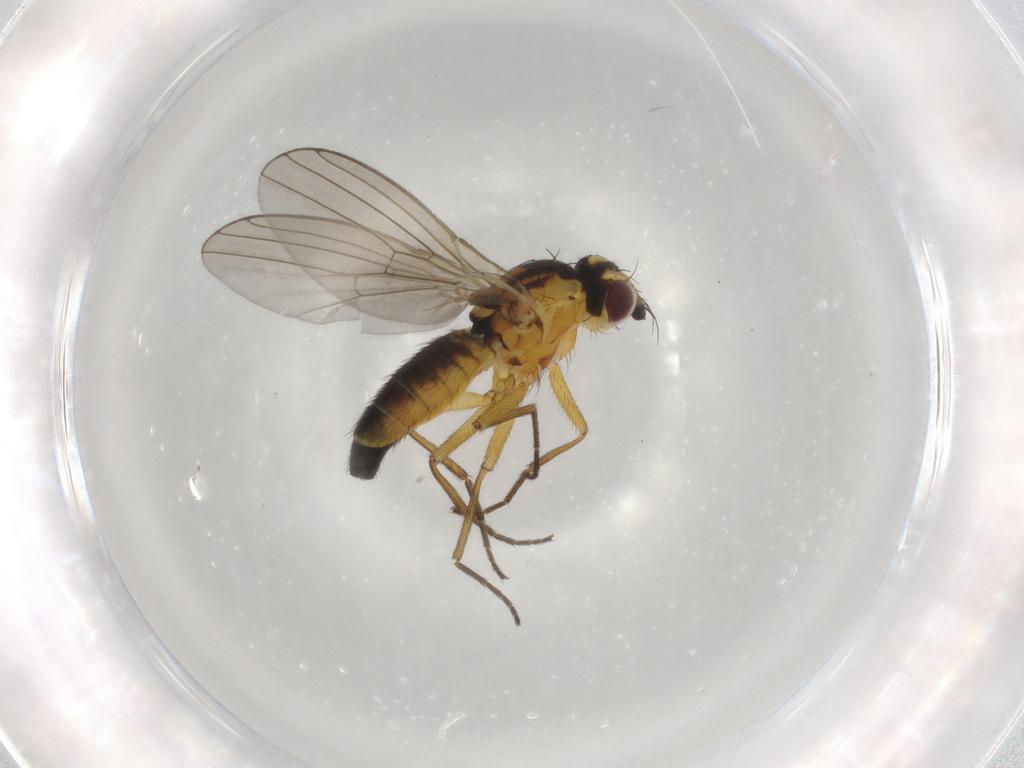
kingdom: Animalia
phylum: Arthropoda
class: Insecta
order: Diptera
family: Agromyzidae
